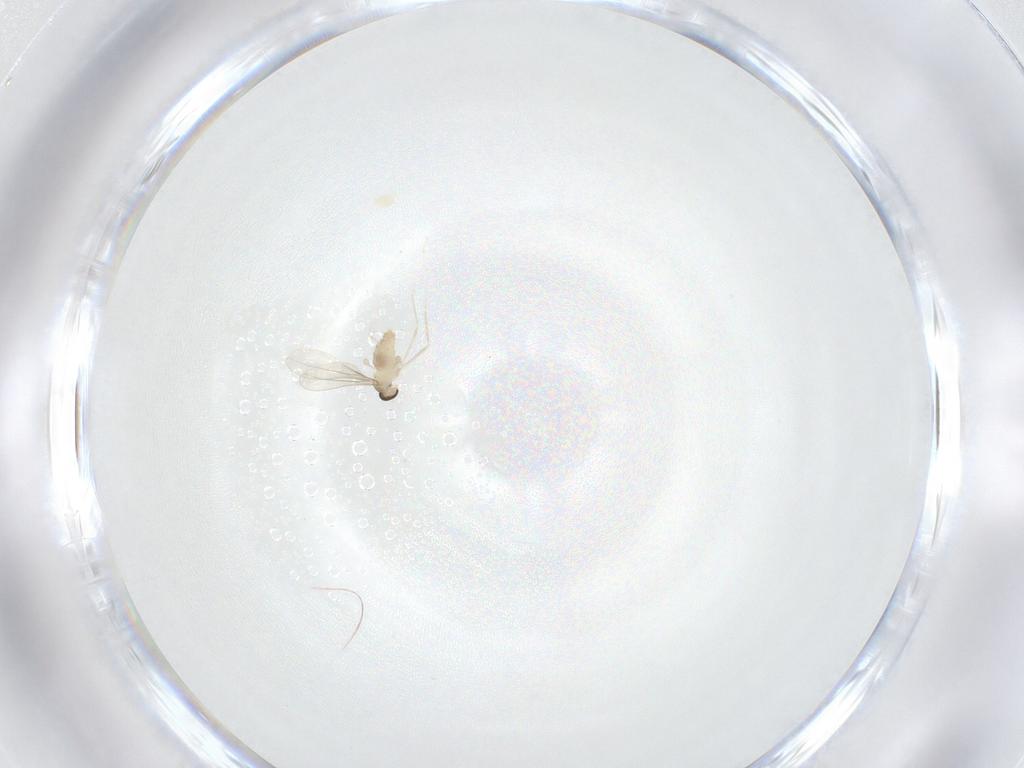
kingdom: Animalia
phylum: Arthropoda
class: Insecta
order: Diptera
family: Cecidomyiidae
